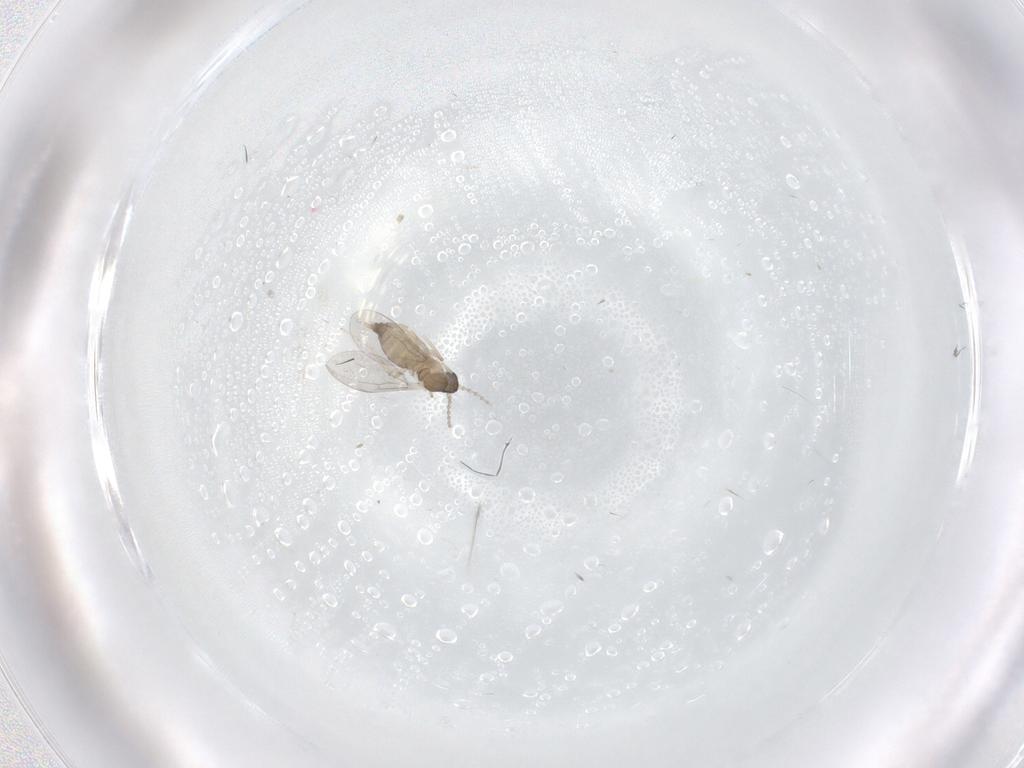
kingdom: Animalia
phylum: Arthropoda
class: Insecta
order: Diptera
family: Cecidomyiidae
